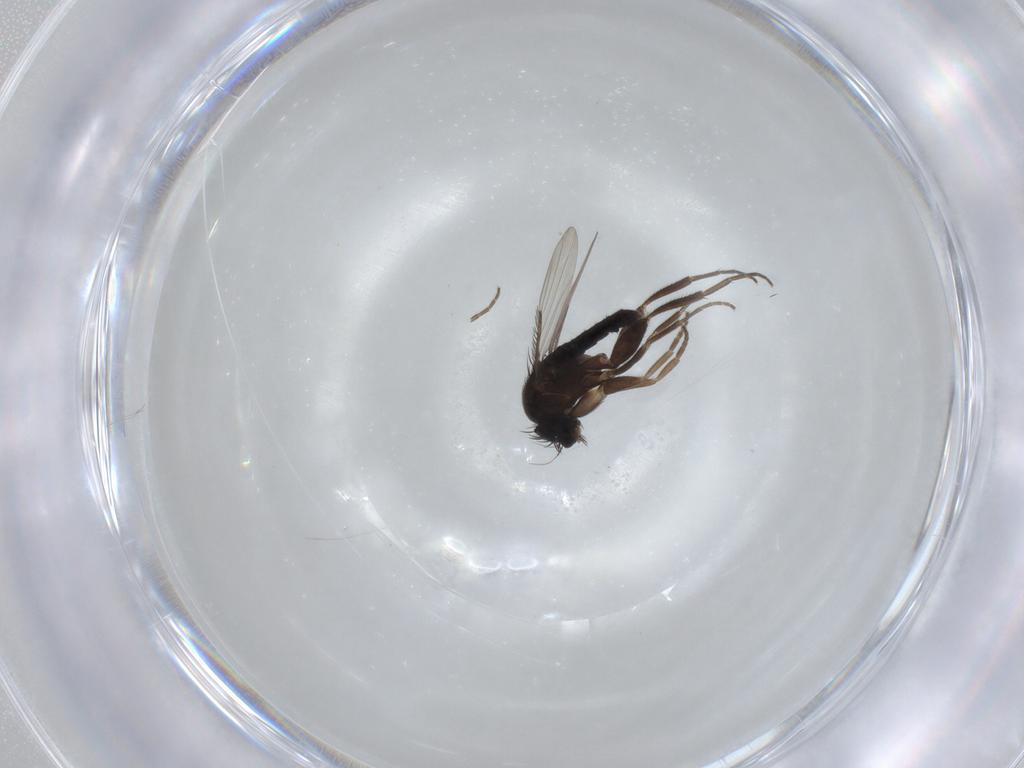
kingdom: Animalia
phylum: Arthropoda
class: Insecta
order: Diptera
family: Phoridae
